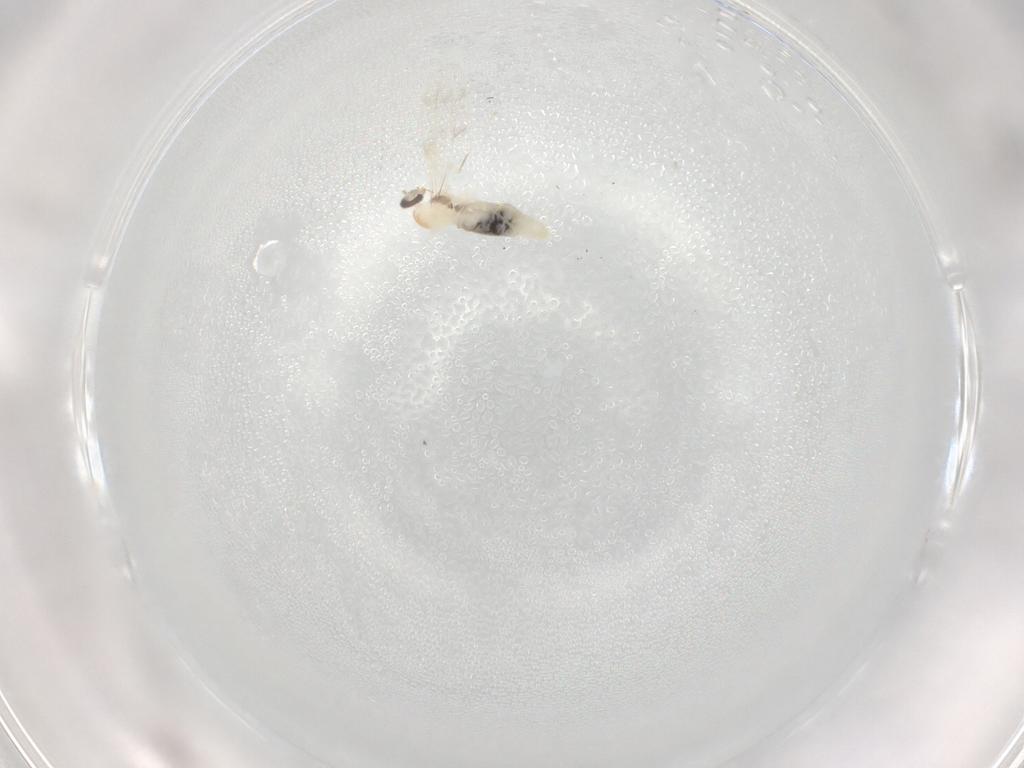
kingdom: Animalia
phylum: Arthropoda
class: Insecta
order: Diptera
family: Cecidomyiidae
